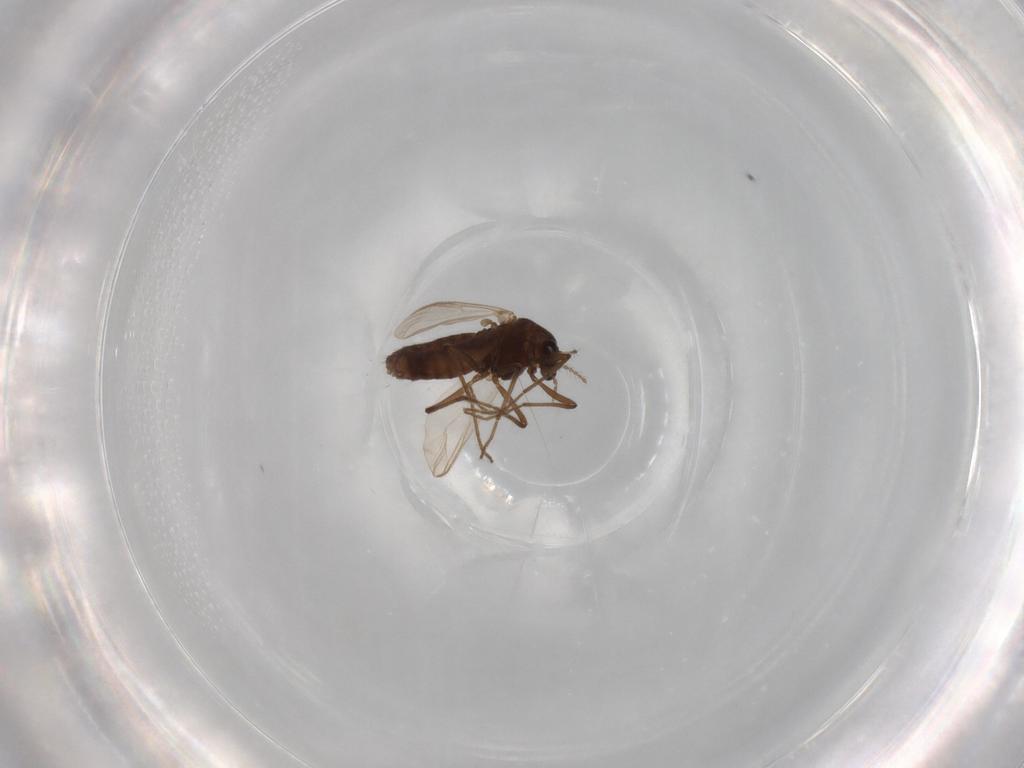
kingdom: Animalia
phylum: Arthropoda
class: Insecta
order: Diptera
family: Chironomidae
